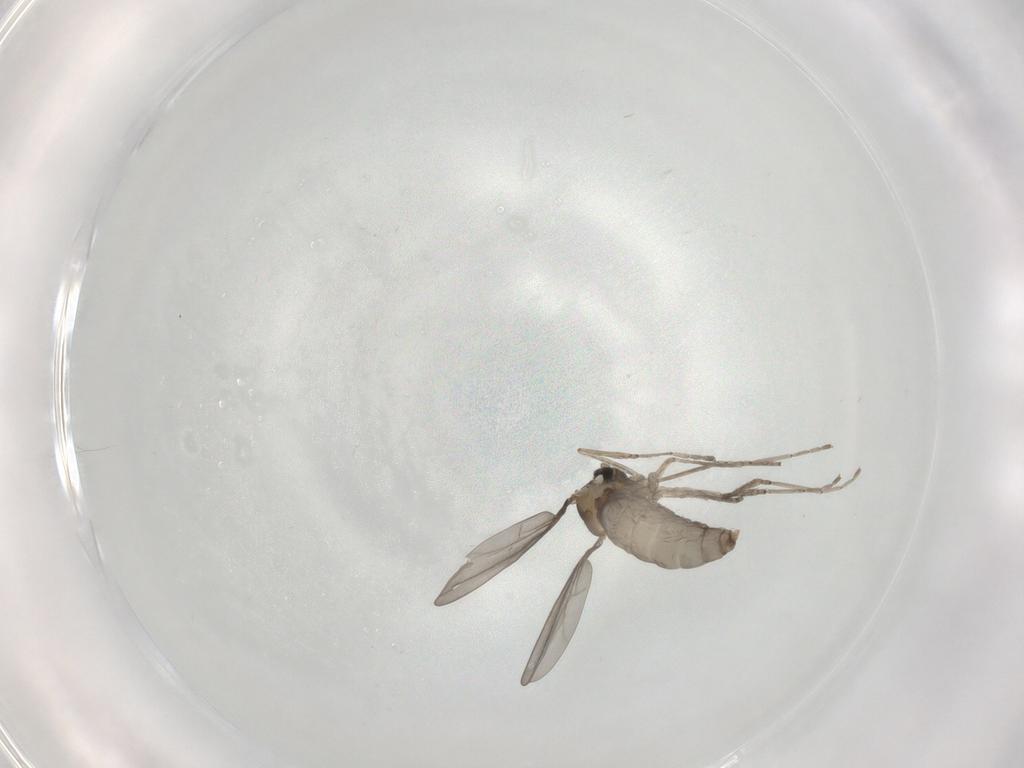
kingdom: Animalia
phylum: Arthropoda
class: Insecta
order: Diptera
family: Cecidomyiidae
